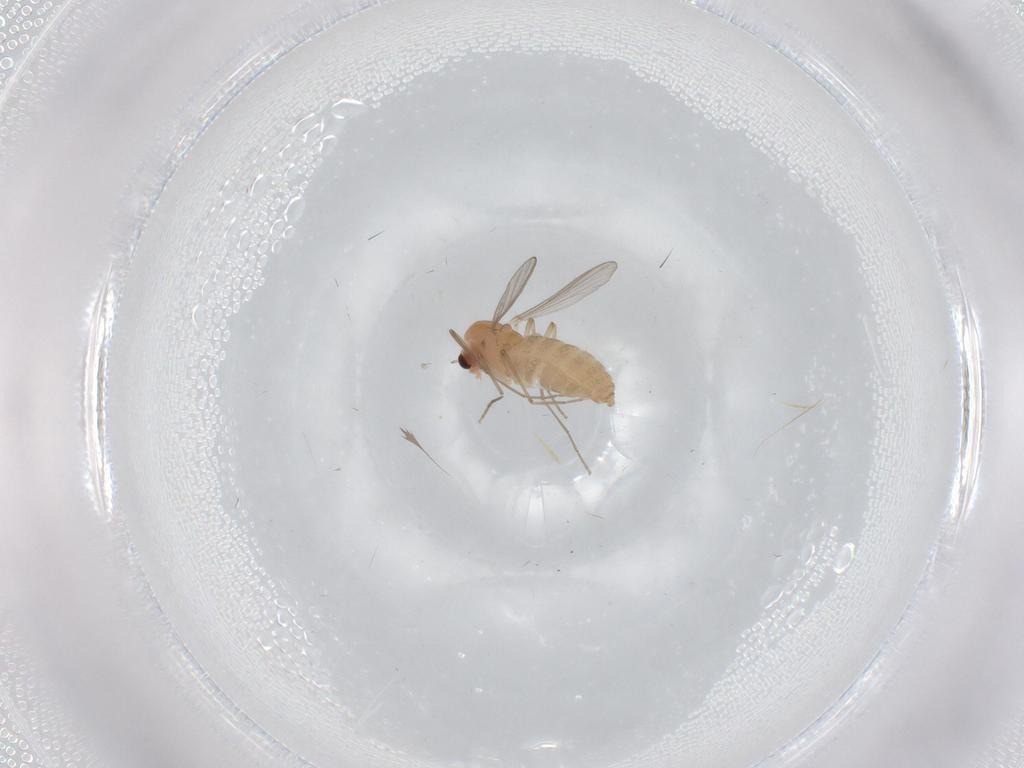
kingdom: Animalia
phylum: Arthropoda
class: Insecta
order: Diptera
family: Chironomidae
